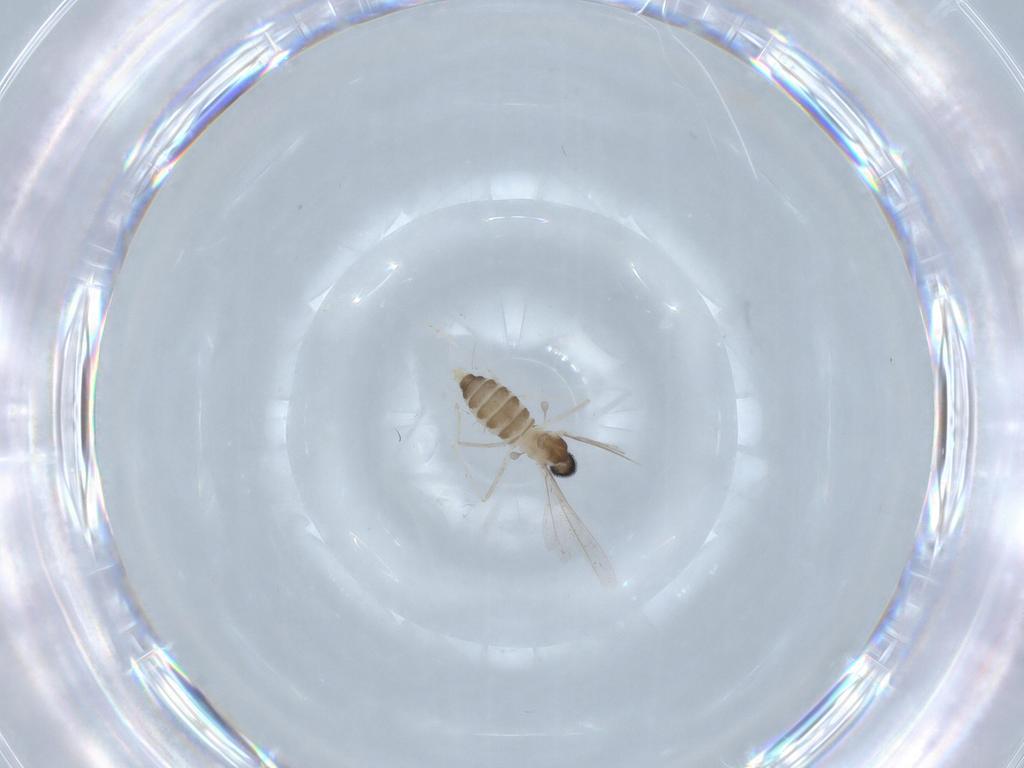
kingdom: Animalia
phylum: Arthropoda
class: Insecta
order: Diptera
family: Cecidomyiidae
